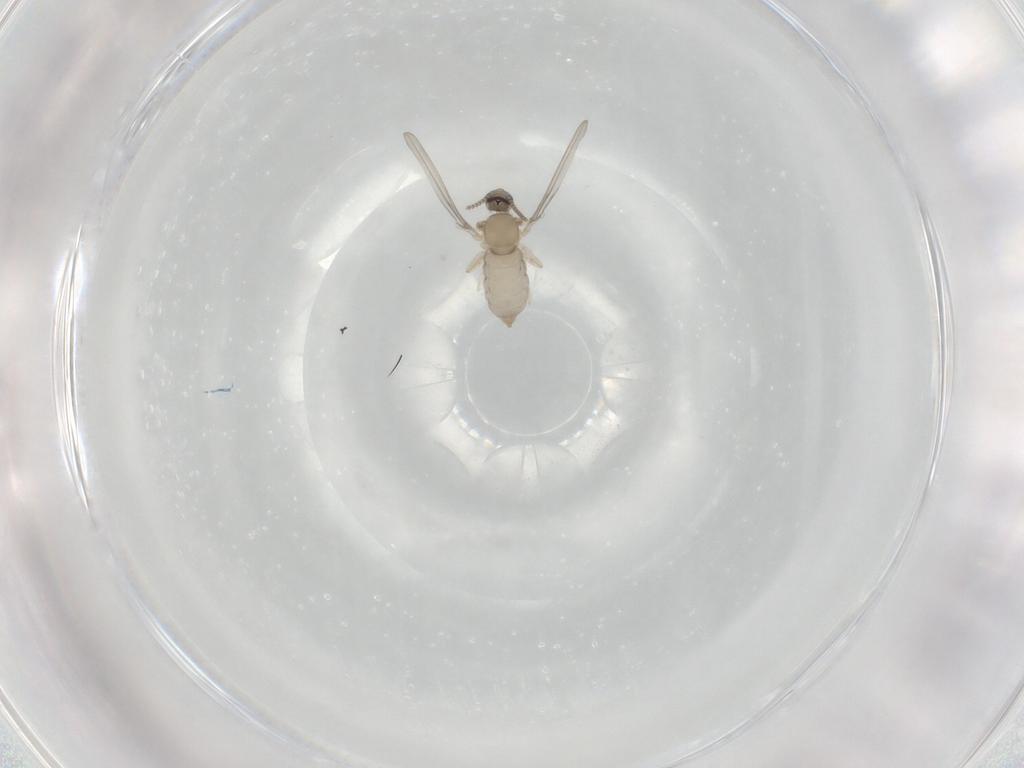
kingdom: Animalia
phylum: Arthropoda
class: Insecta
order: Diptera
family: Cecidomyiidae
